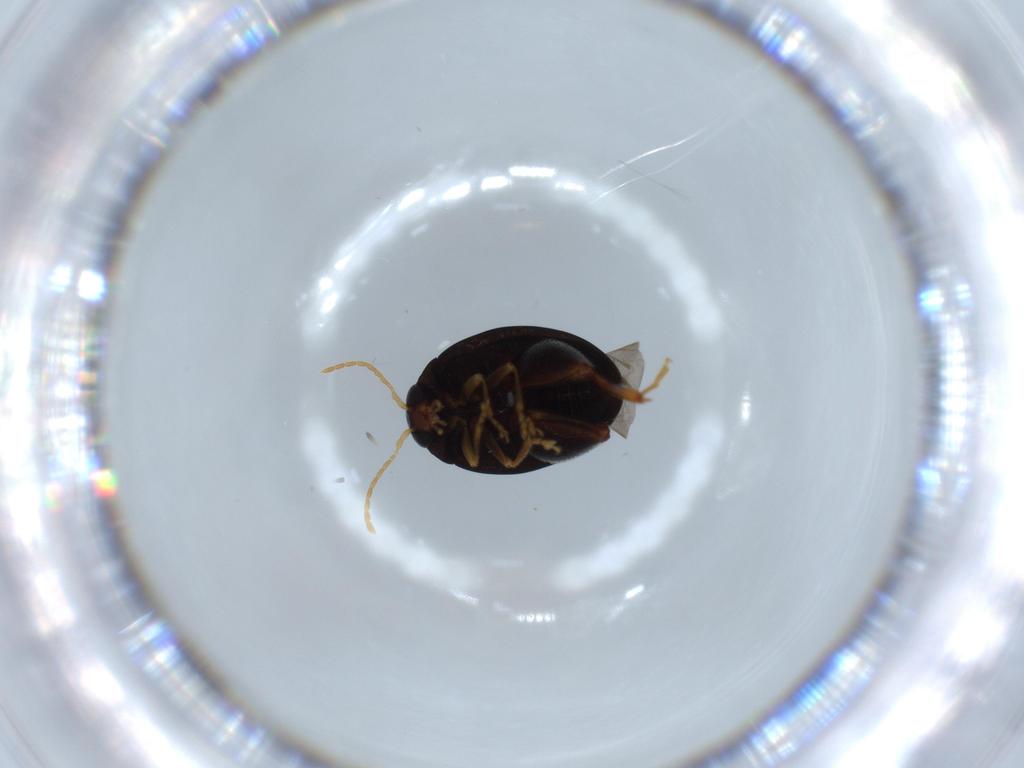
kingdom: Animalia
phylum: Arthropoda
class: Insecta
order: Coleoptera
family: Chrysomelidae
